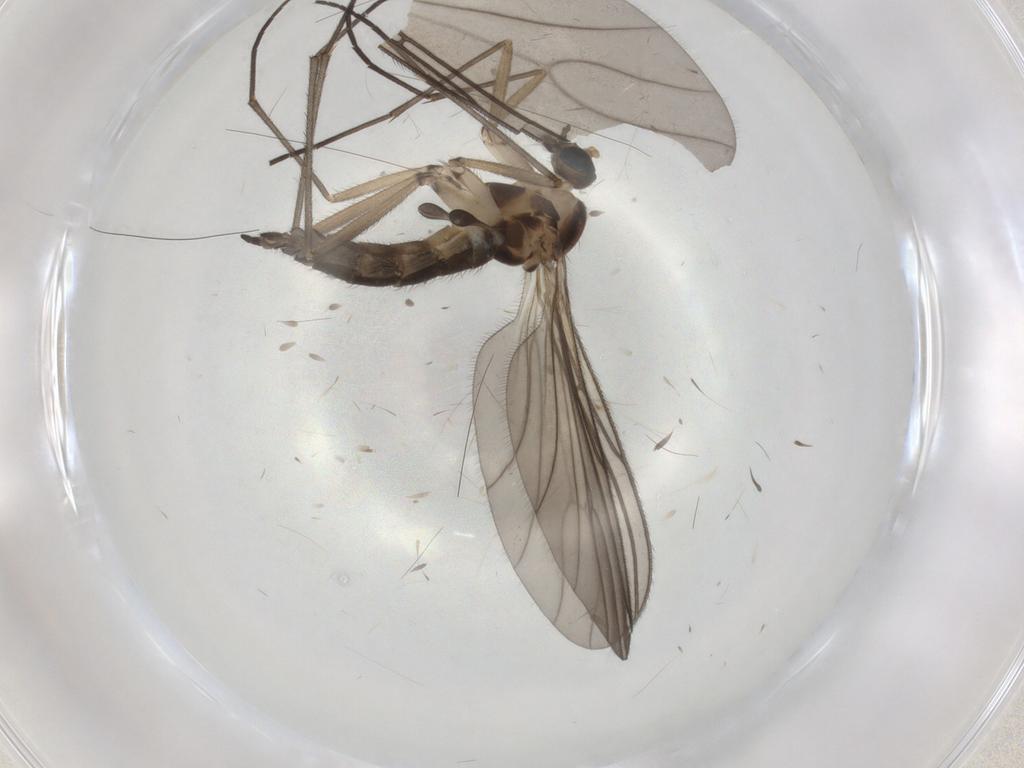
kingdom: Animalia
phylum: Arthropoda
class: Insecta
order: Diptera
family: Sciaridae
